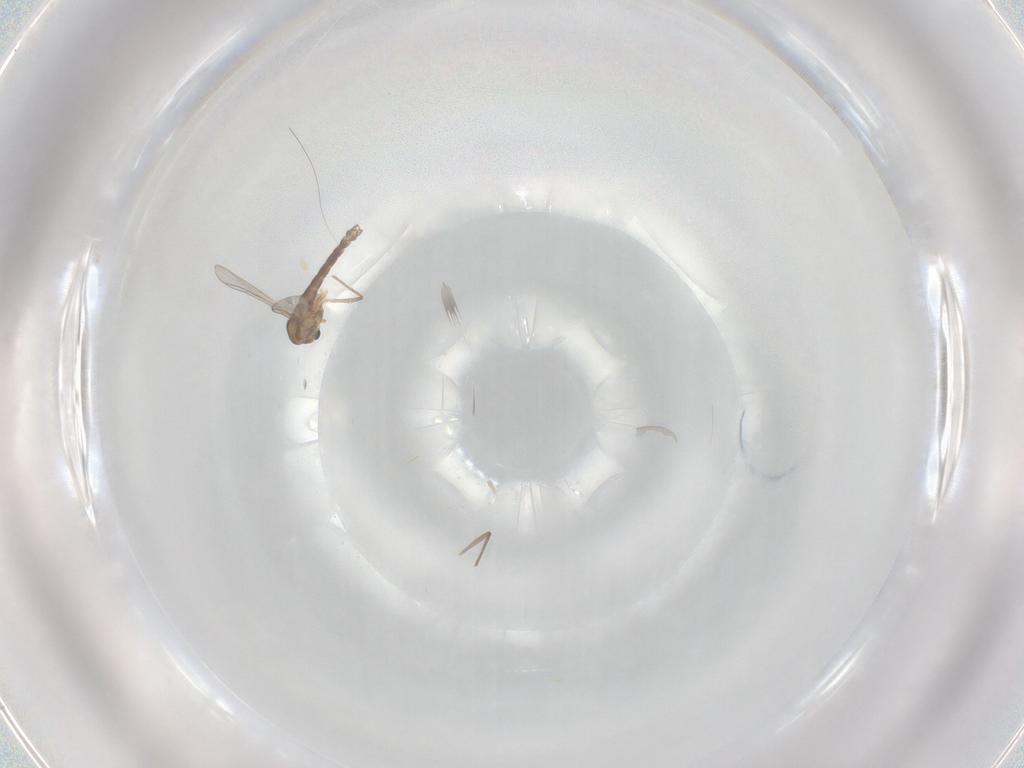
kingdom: Animalia
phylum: Arthropoda
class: Insecta
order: Diptera
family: Chironomidae
